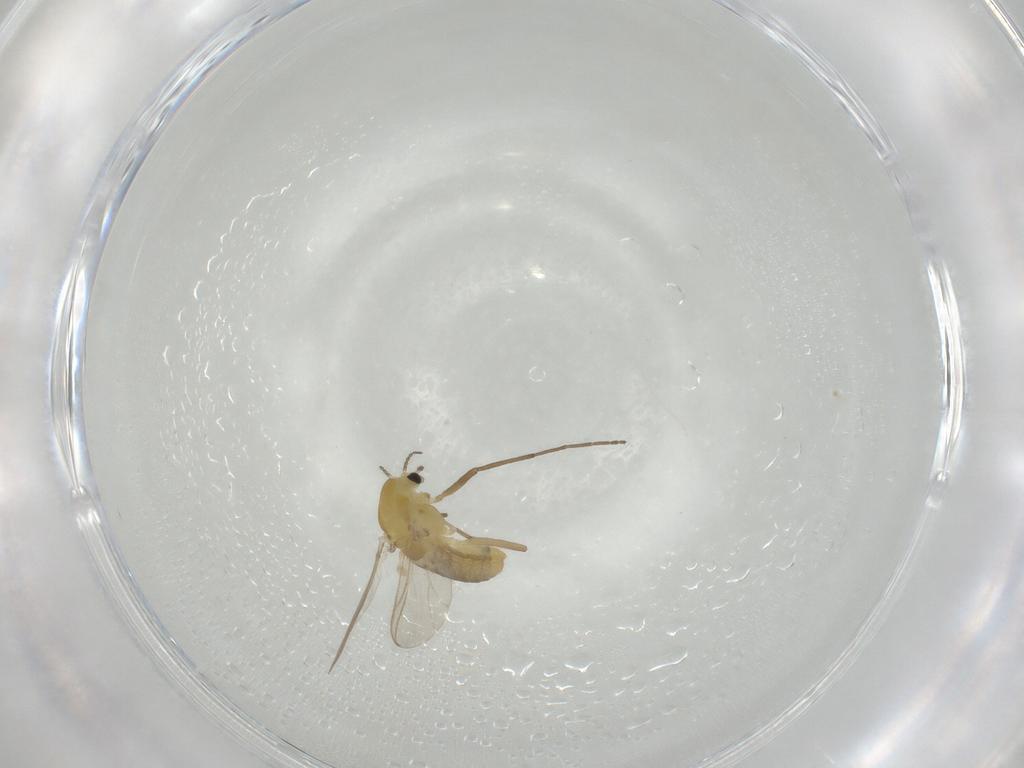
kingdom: Animalia
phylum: Arthropoda
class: Insecta
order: Diptera
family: Chironomidae
